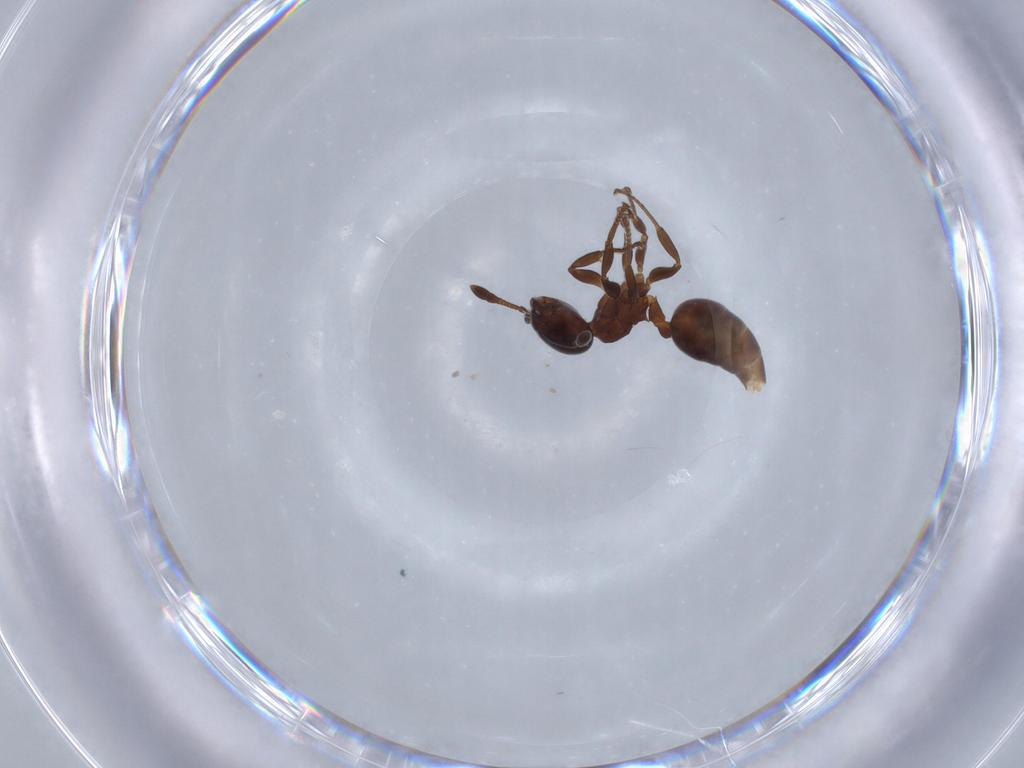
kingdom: Animalia
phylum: Arthropoda
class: Insecta
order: Hymenoptera
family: Formicidae
